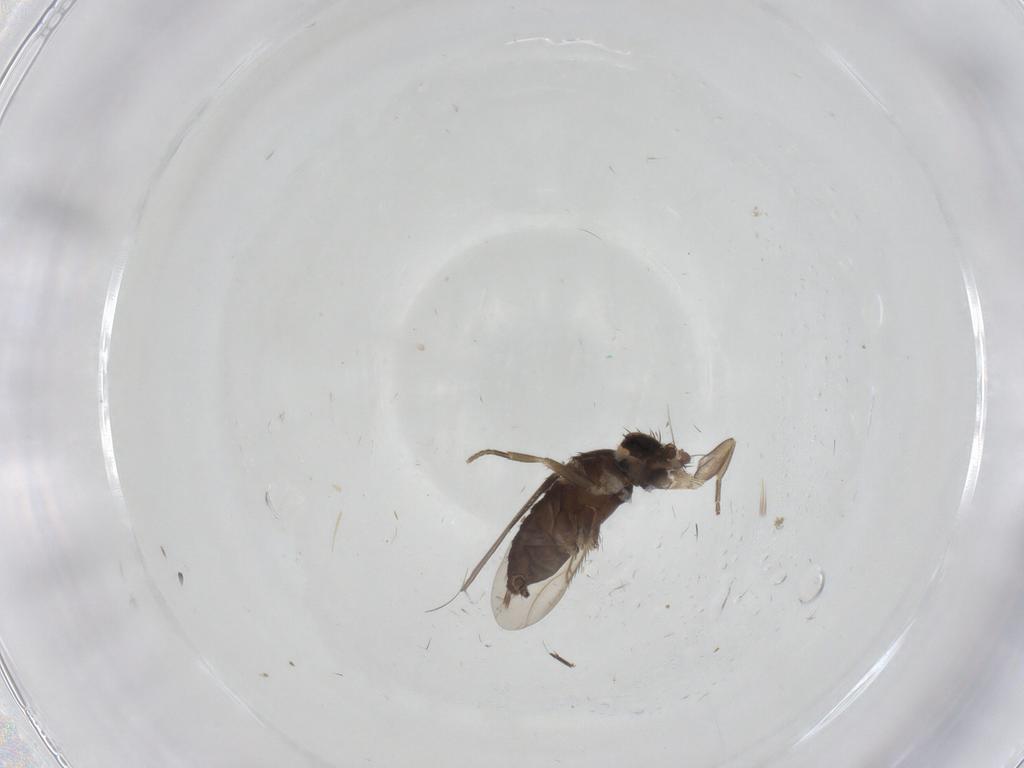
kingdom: Animalia
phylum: Arthropoda
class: Insecta
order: Diptera
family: Phoridae
